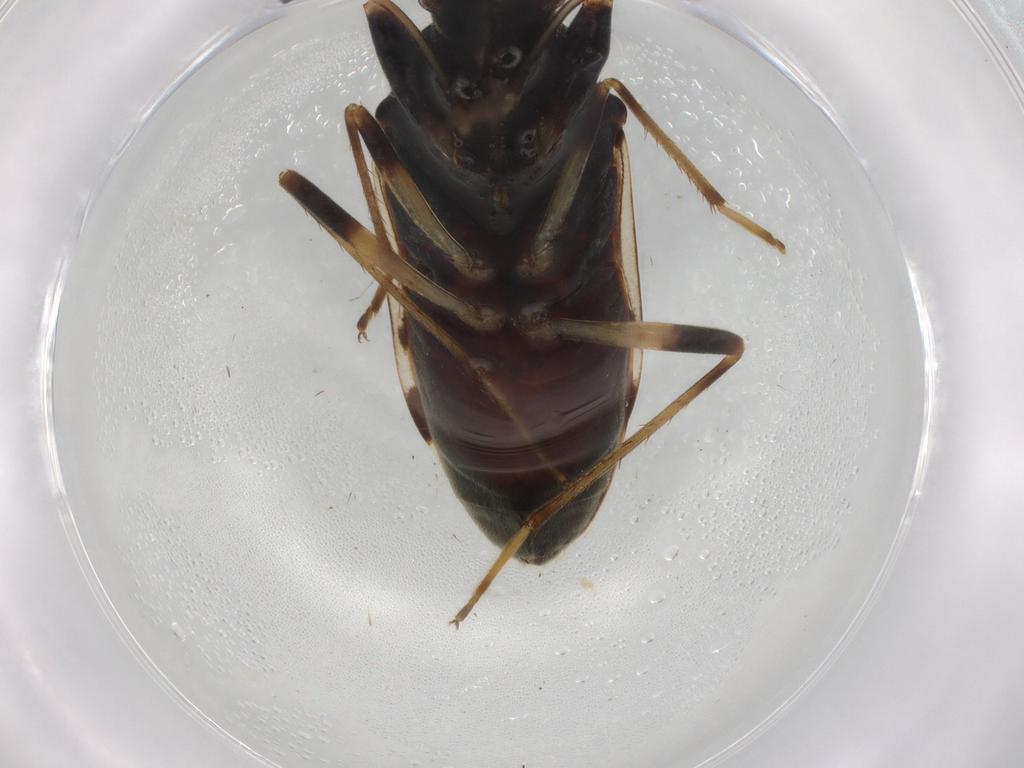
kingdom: Animalia
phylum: Arthropoda
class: Insecta
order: Hemiptera
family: Rhyparochromidae
